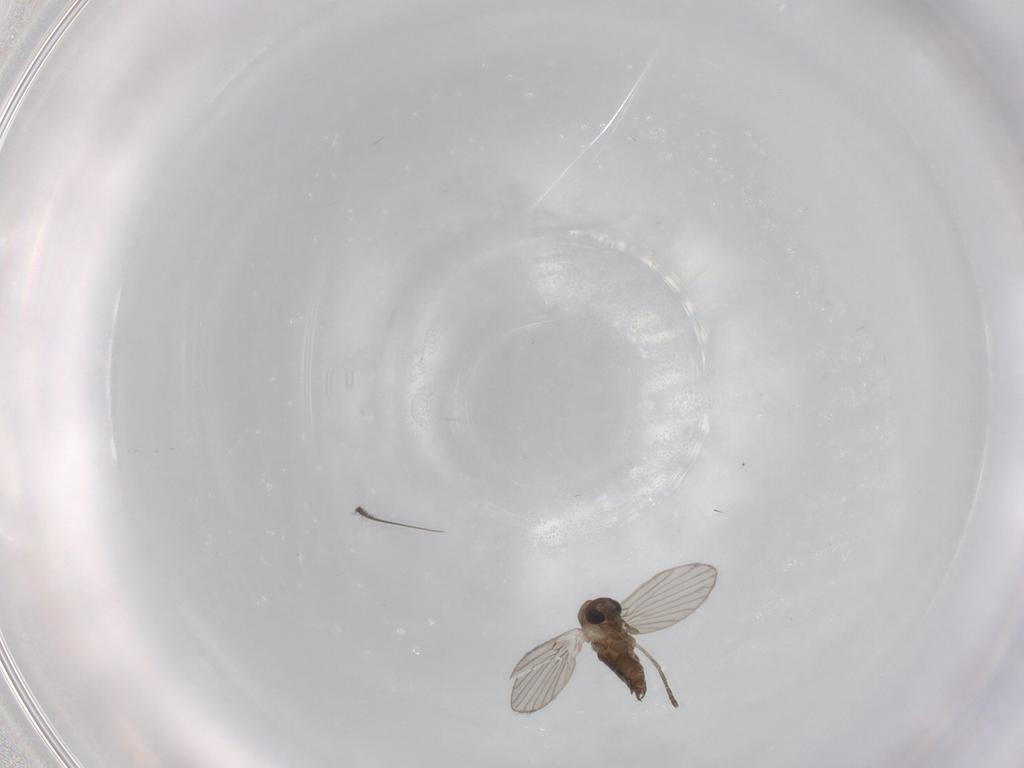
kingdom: Animalia
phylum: Arthropoda
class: Insecta
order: Diptera
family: Chironomidae
